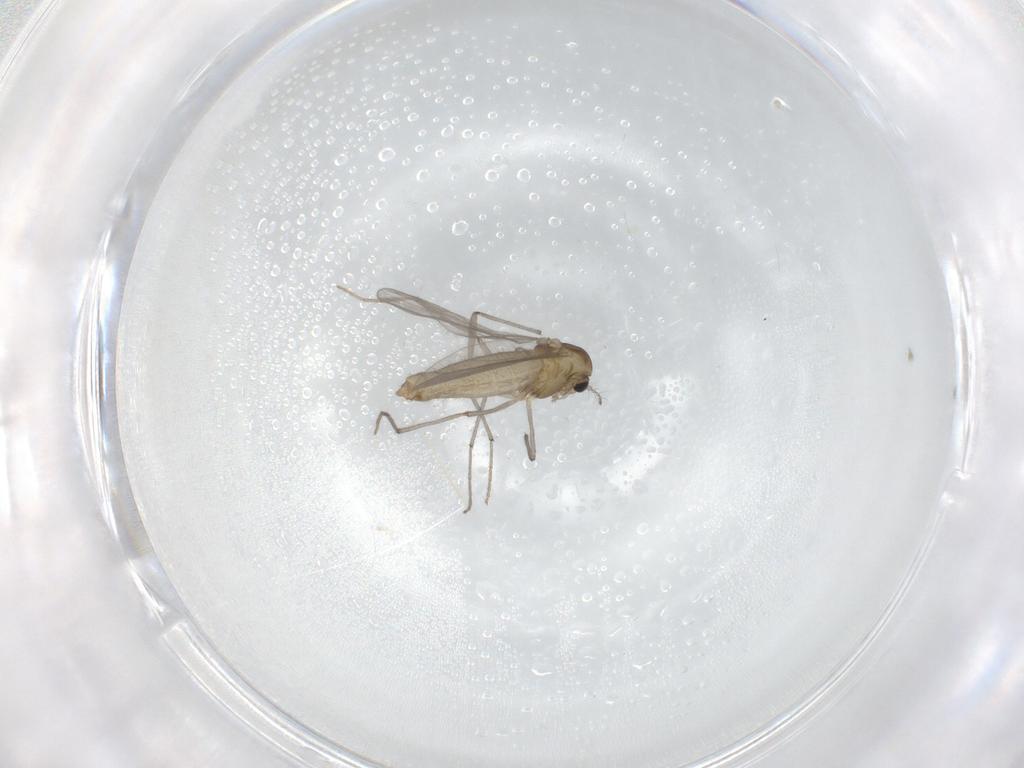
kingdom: Animalia
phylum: Arthropoda
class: Insecta
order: Diptera
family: Chironomidae
